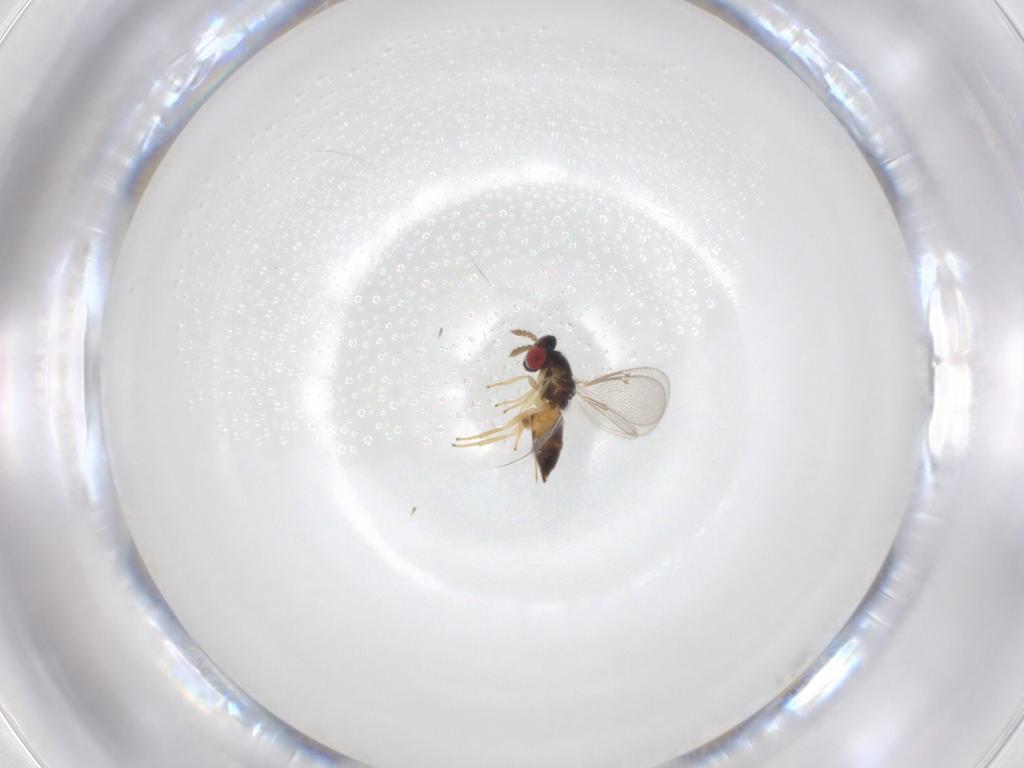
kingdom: Animalia
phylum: Arthropoda
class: Insecta
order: Hymenoptera
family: Eulophidae
